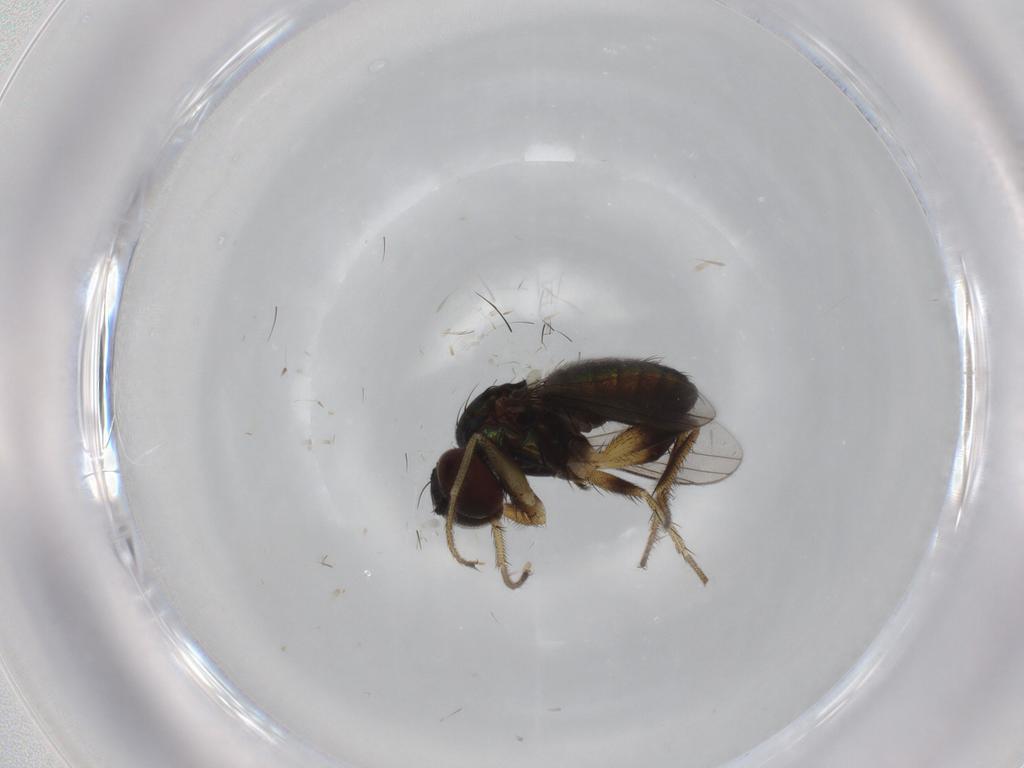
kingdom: Animalia
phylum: Arthropoda
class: Insecta
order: Diptera
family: Dolichopodidae
